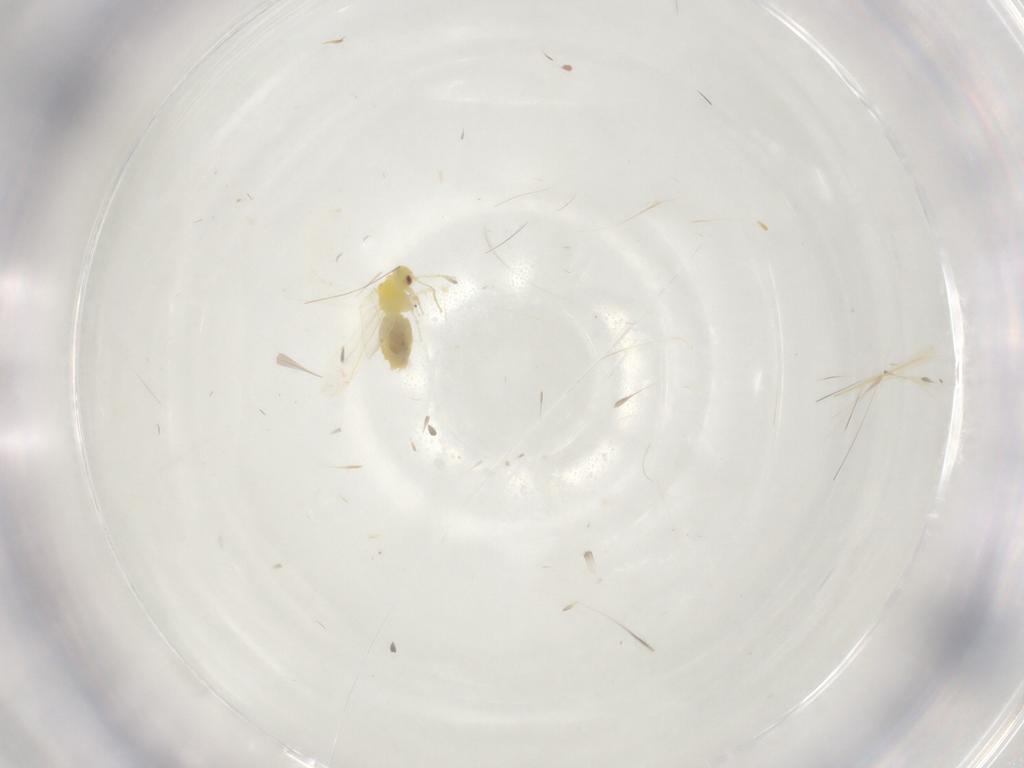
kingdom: Animalia
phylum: Arthropoda
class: Insecta
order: Hemiptera
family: Aleyrodidae
